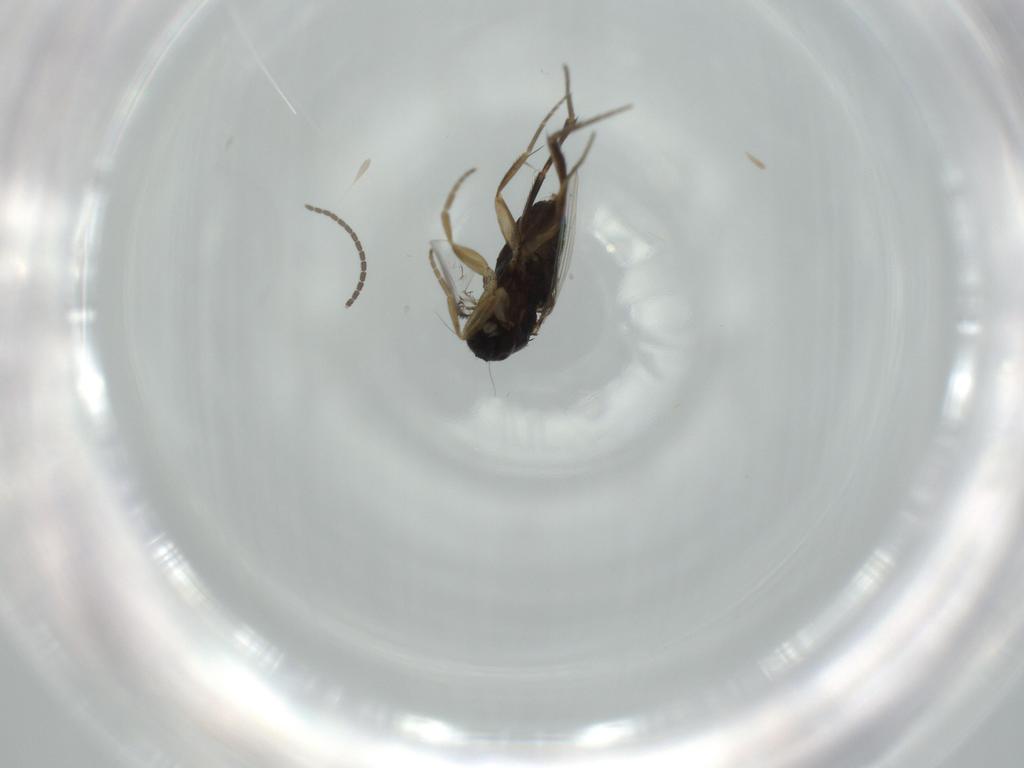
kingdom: Animalia
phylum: Arthropoda
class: Insecta
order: Diptera
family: Phoridae
